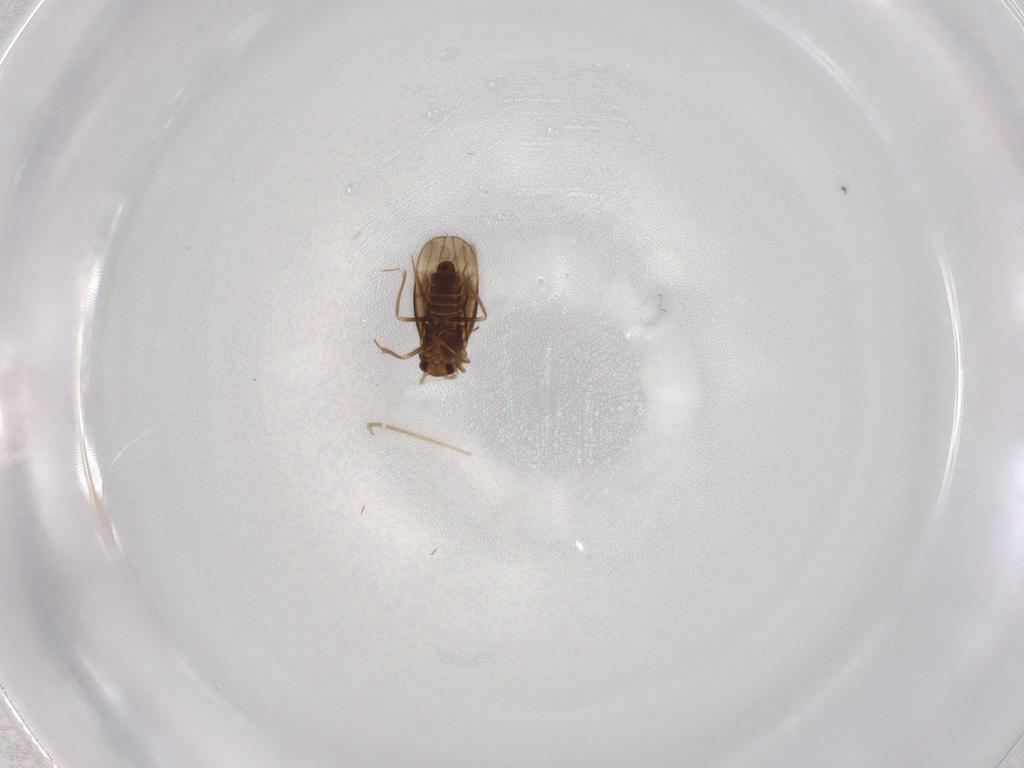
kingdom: Animalia
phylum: Arthropoda
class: Insecta
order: Hemiptera
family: Schizopteridae
